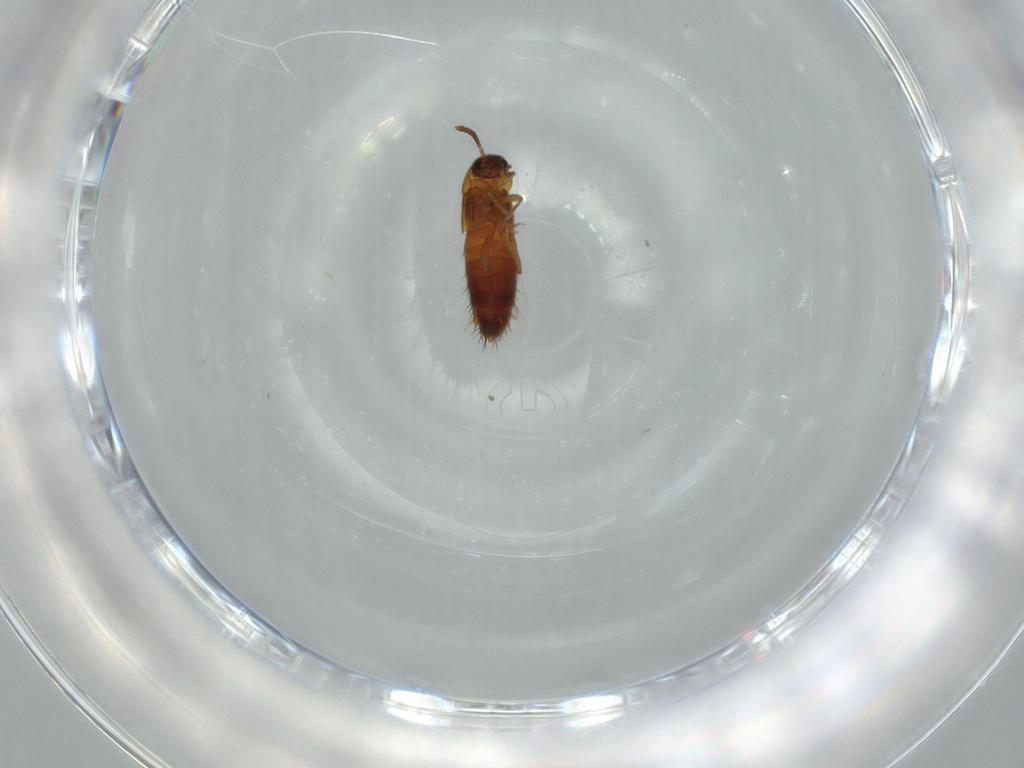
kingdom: Animalia
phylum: Arthropoda
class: Insecta
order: Coleoptera
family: Staphylinidae
